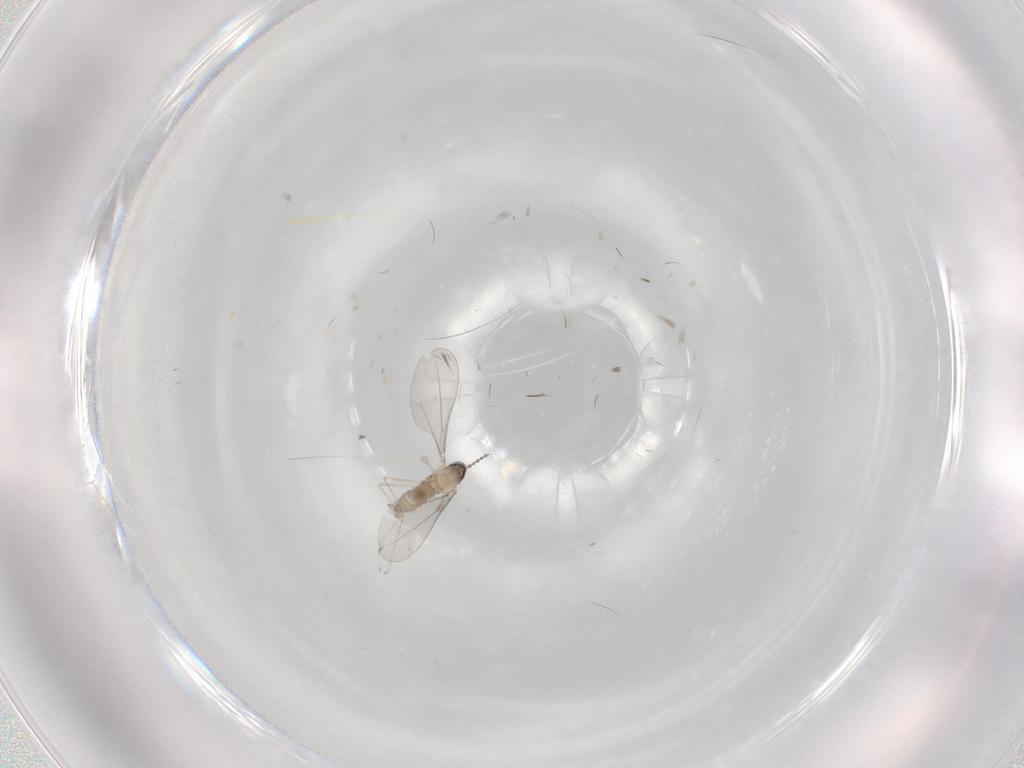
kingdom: Animalia
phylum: Arthropoda
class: Insecta
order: Diptera
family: Cecidomyiidae
